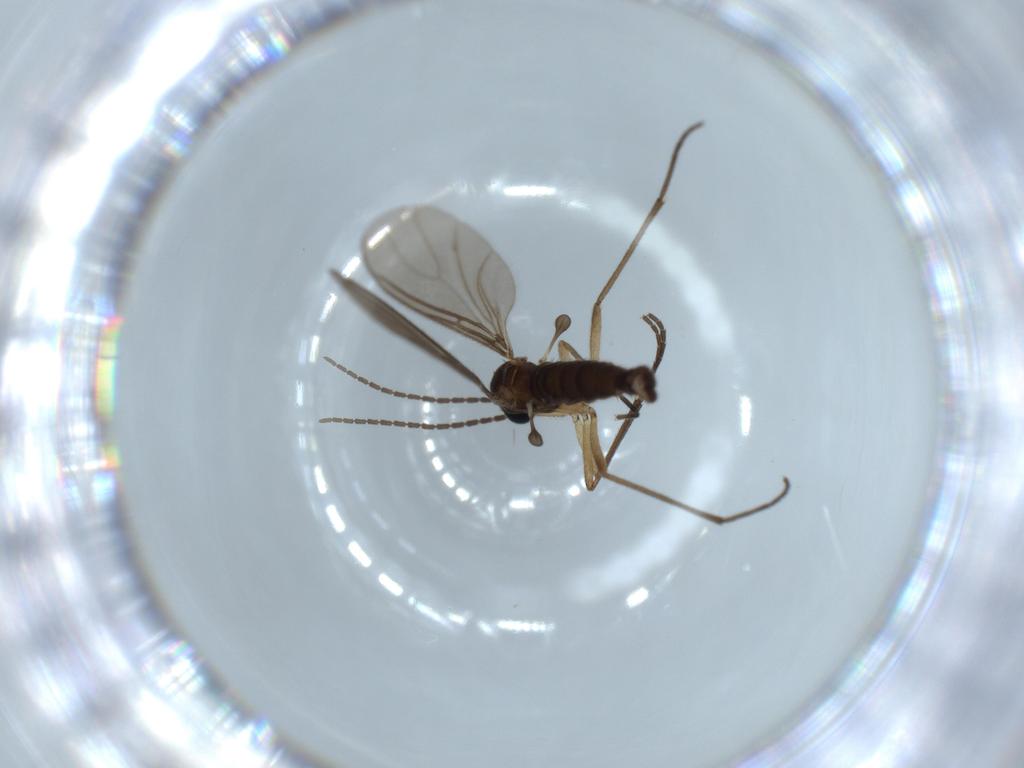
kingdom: Animalia
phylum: Arthropoda
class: Insecta
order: Diptera
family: Sciaridae
